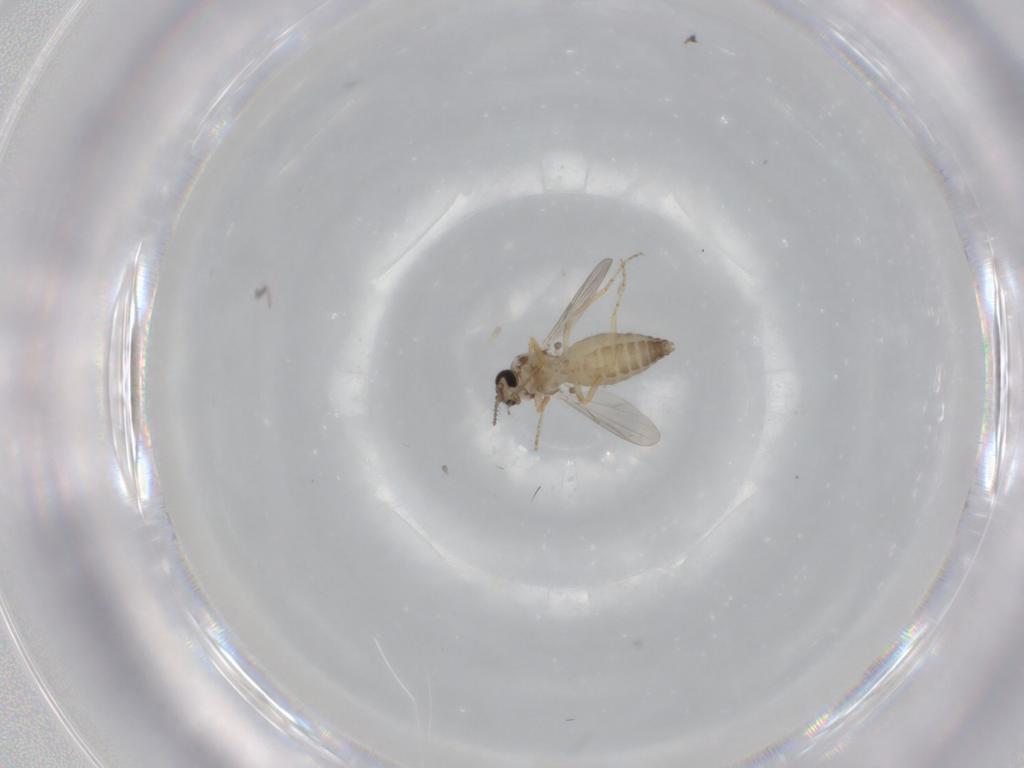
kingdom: Animalia
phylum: Arthropoda
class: Insecta
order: Diptera
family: Ceratopogonidae
